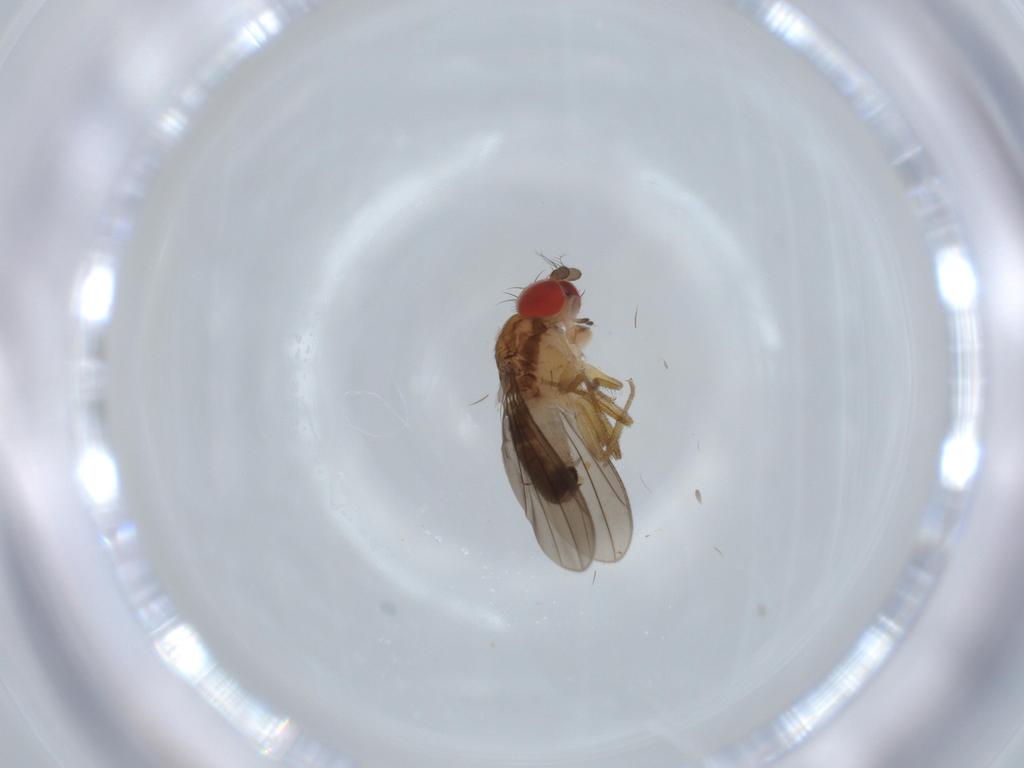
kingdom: Animalia
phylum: Arthropoda
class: Insecta
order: Diptera
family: Drosophilidae
